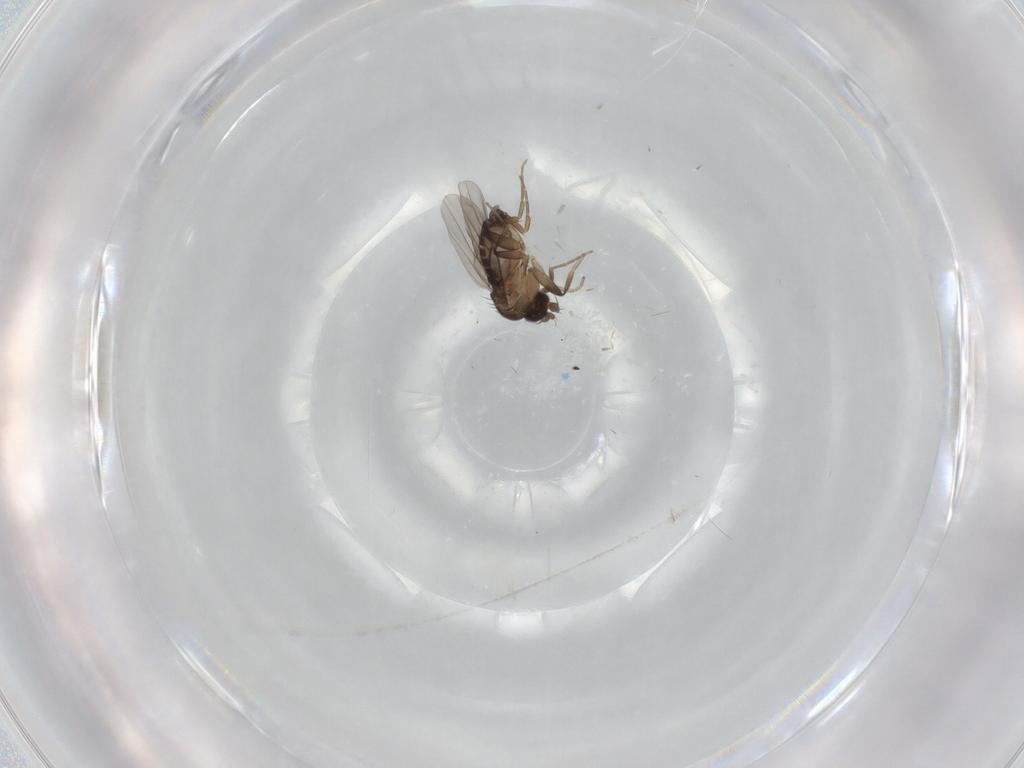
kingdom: Animalia
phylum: Arthropoda
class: Insecta
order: Diptera
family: Phoridae
